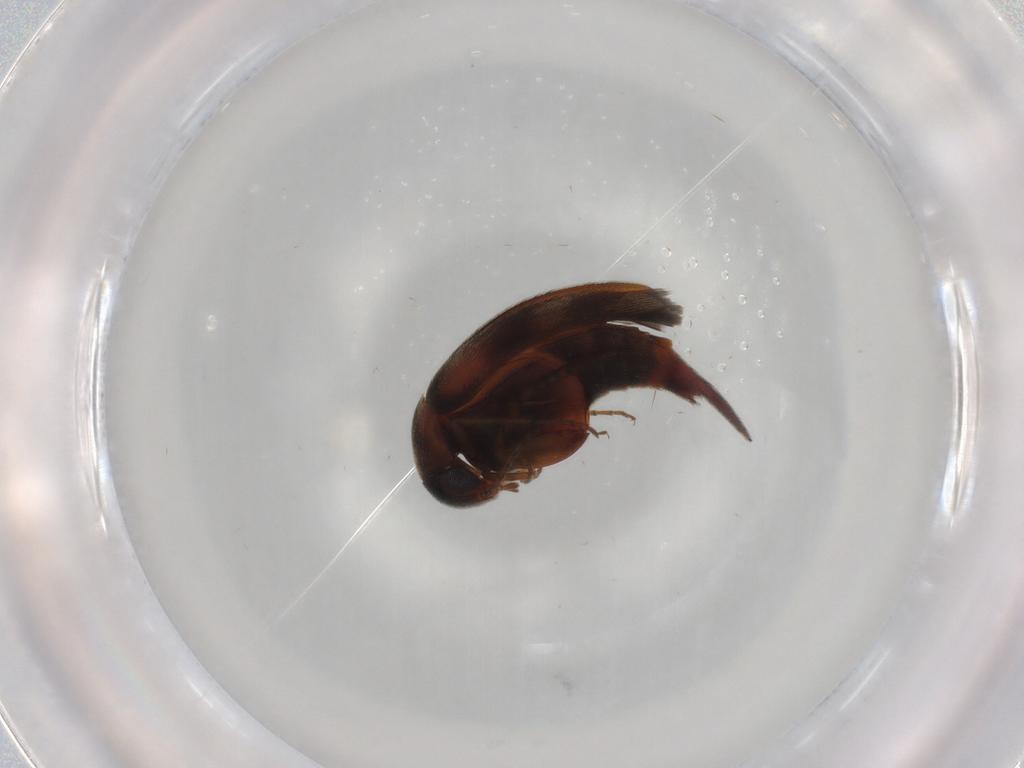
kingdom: Animalia
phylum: Arthropoda
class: Insecta
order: Coleoptera
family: Mordellidae
